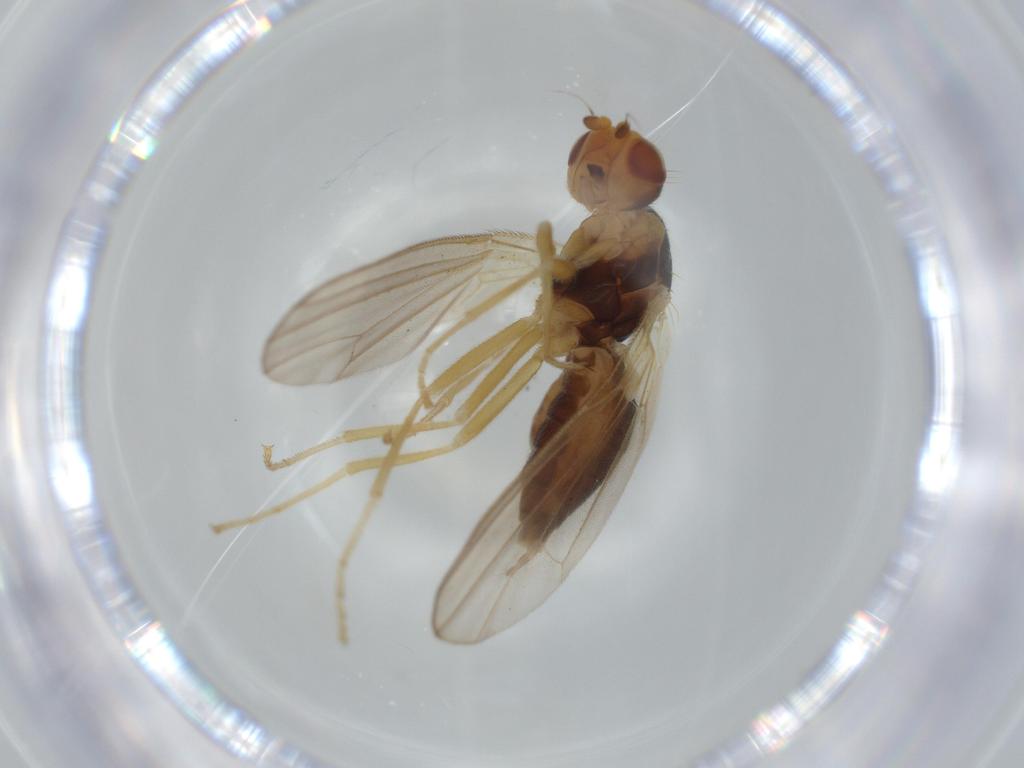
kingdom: Animalia
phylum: Arthropoda
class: Insecta
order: Diptera
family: Psilidae
